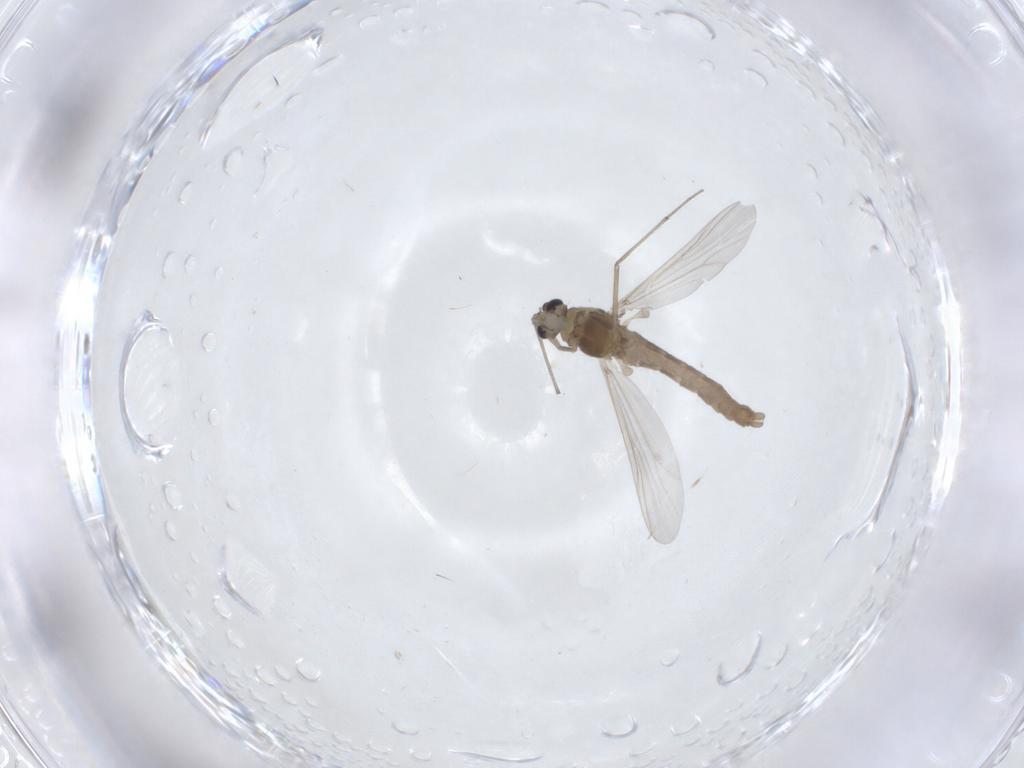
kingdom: Animalia
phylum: Arthropoda
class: Insecta
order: Diptera
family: Chironomidae
